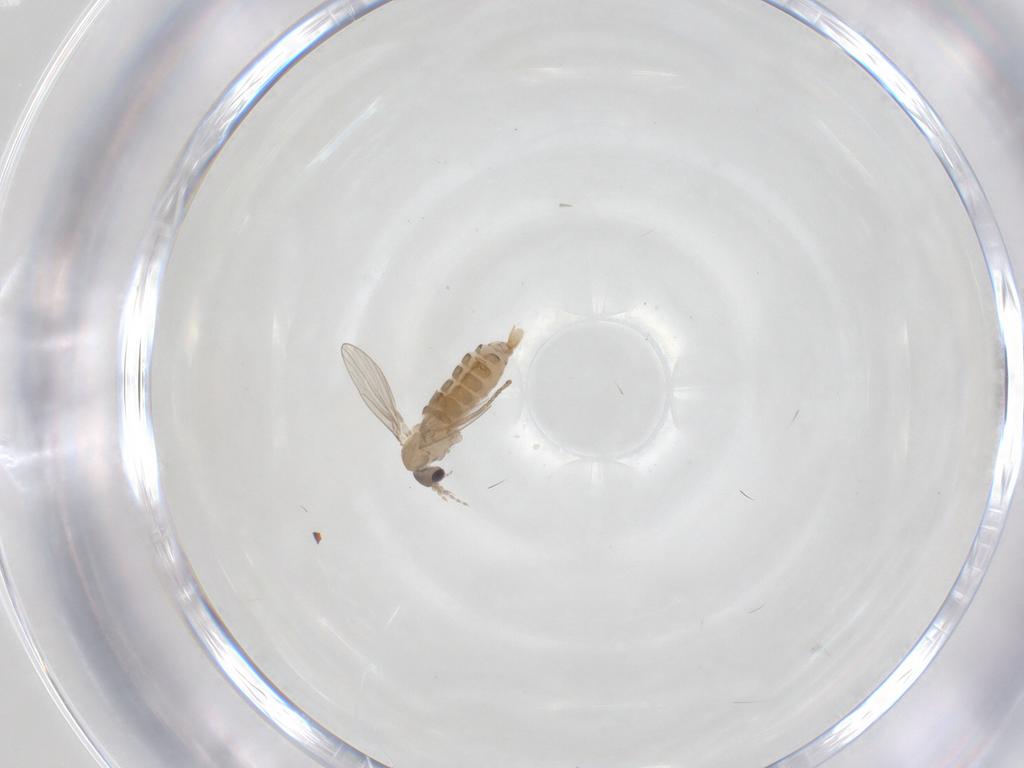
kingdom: Animalia
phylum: Arthropoda
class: Insecta
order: Diptera
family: Psychodidae
